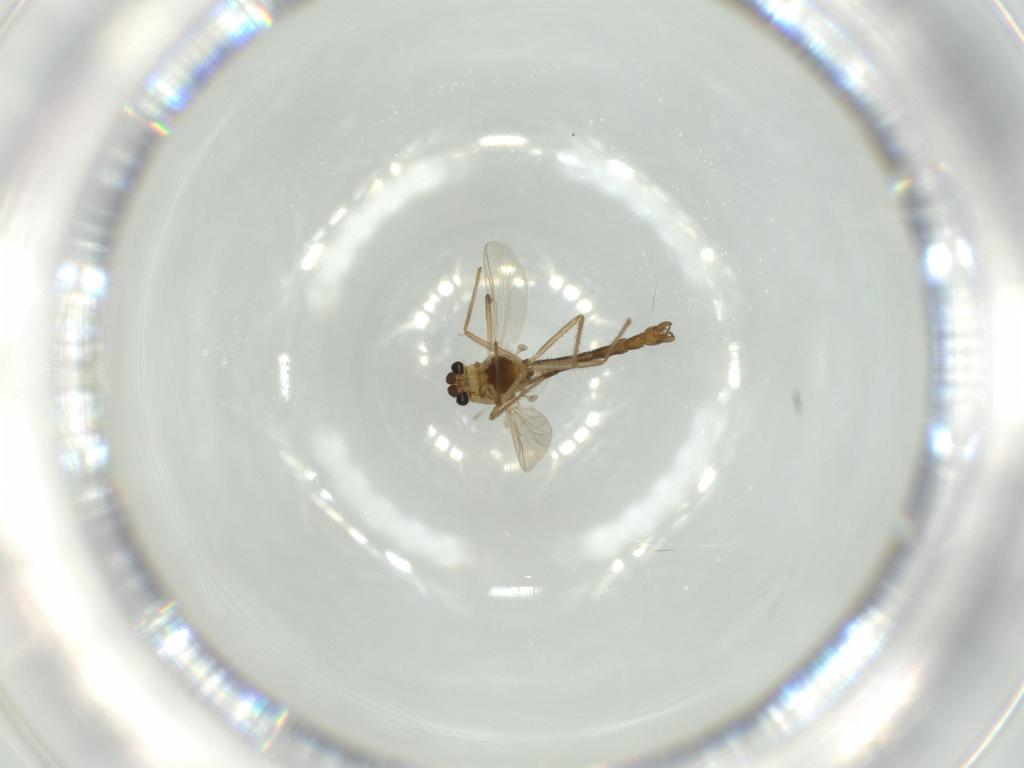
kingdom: Animalia
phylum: Arthropoda
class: Insecta
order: Diptera
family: Chironomidae
